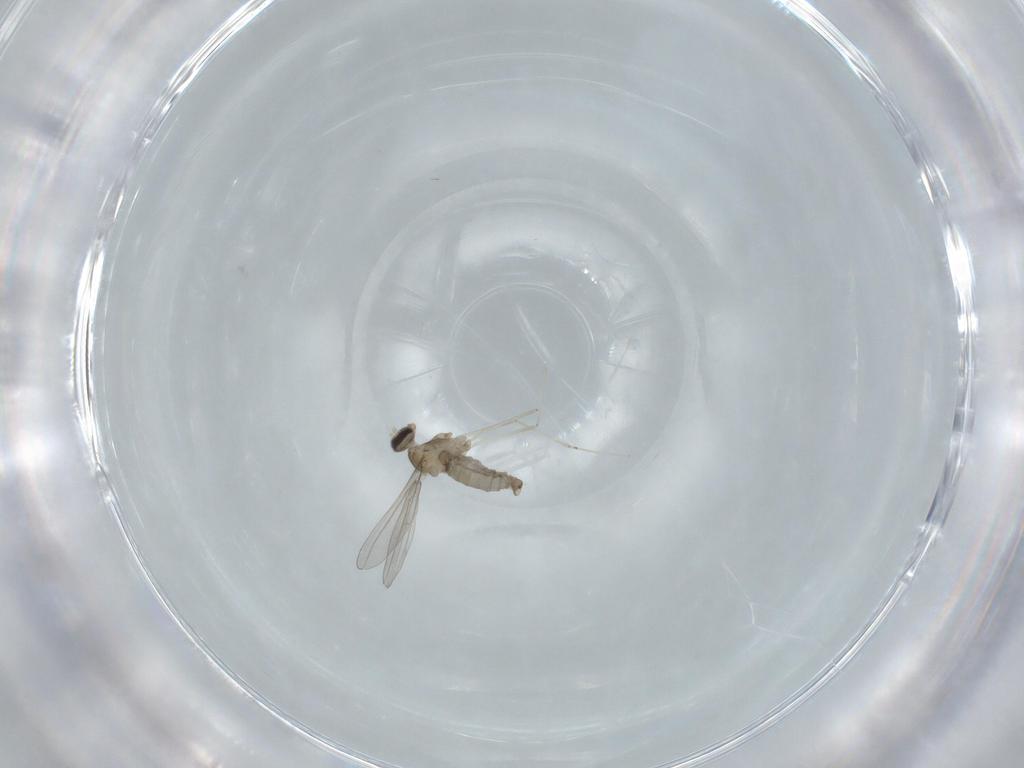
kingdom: Animalia
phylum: Arthropoda
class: Insecta
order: Diptera
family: Cecidomyiidae
